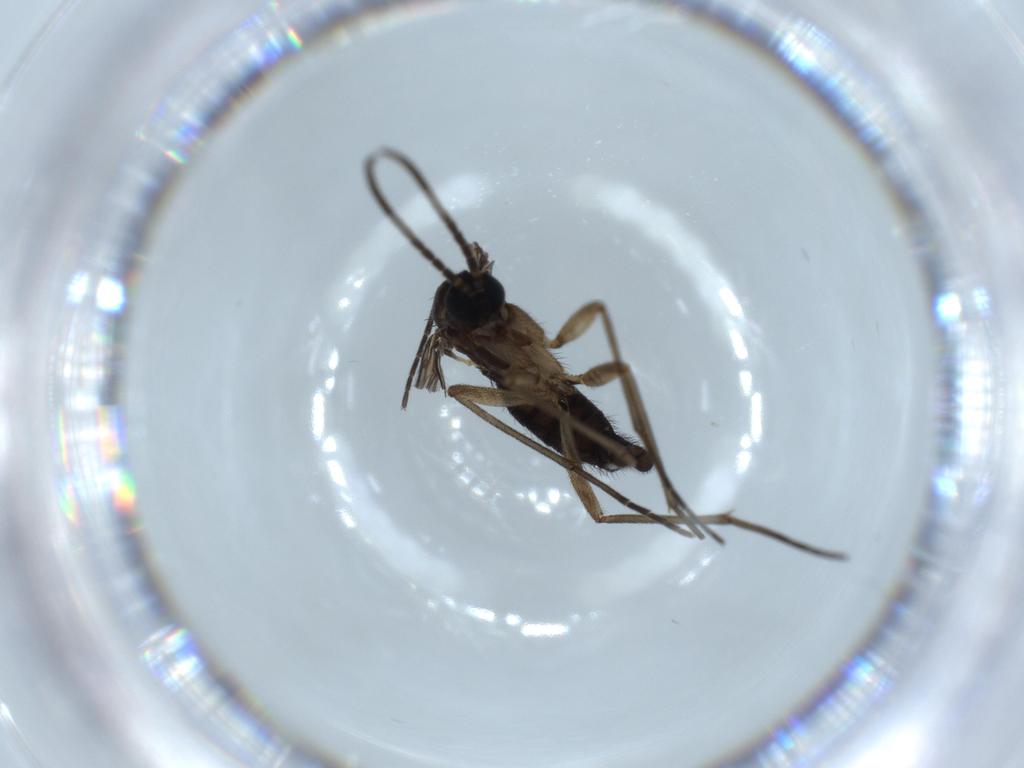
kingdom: Animalia
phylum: Arthropoda
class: Insecta
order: Diptera
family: Sciaridae
